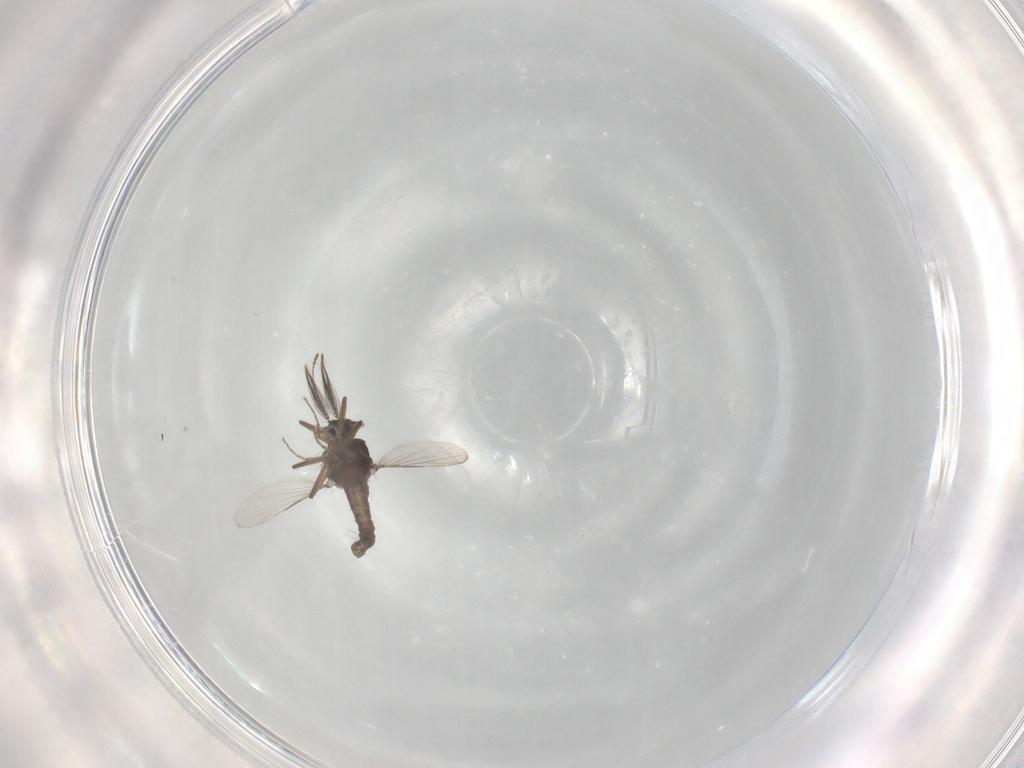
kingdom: Animalia
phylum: Arthropoda
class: Insecta
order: Diptera
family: Ceratopogonidae
